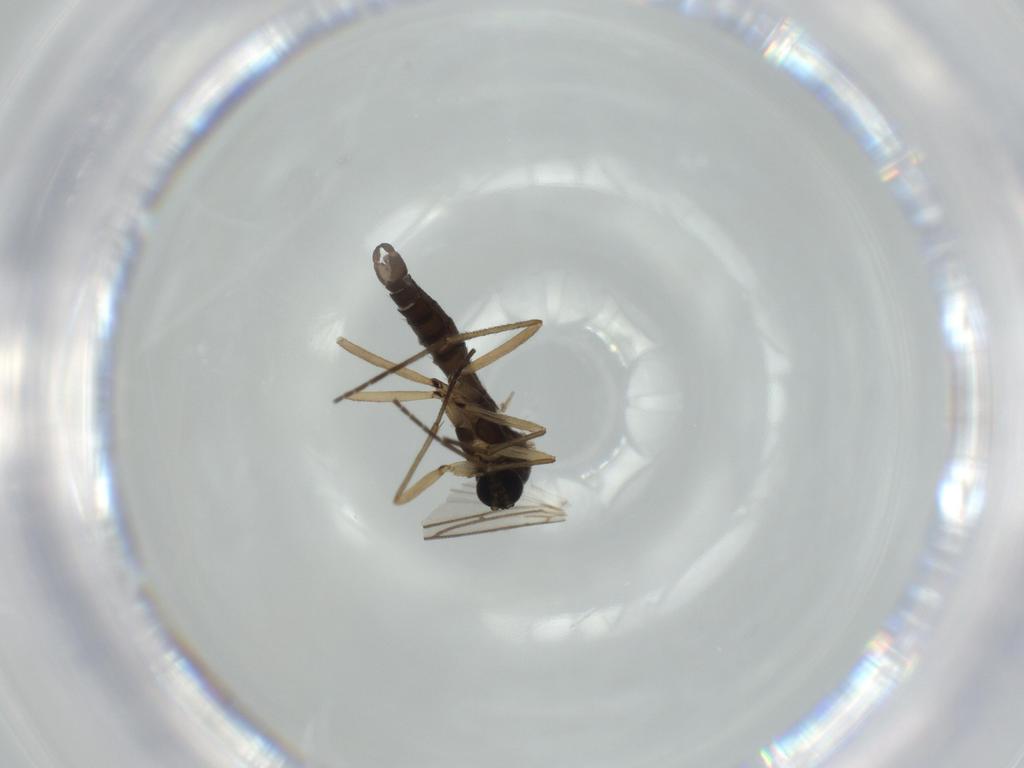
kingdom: Animalia
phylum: Arthropoda
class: Insecta
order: Diptera
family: Sciaridae
